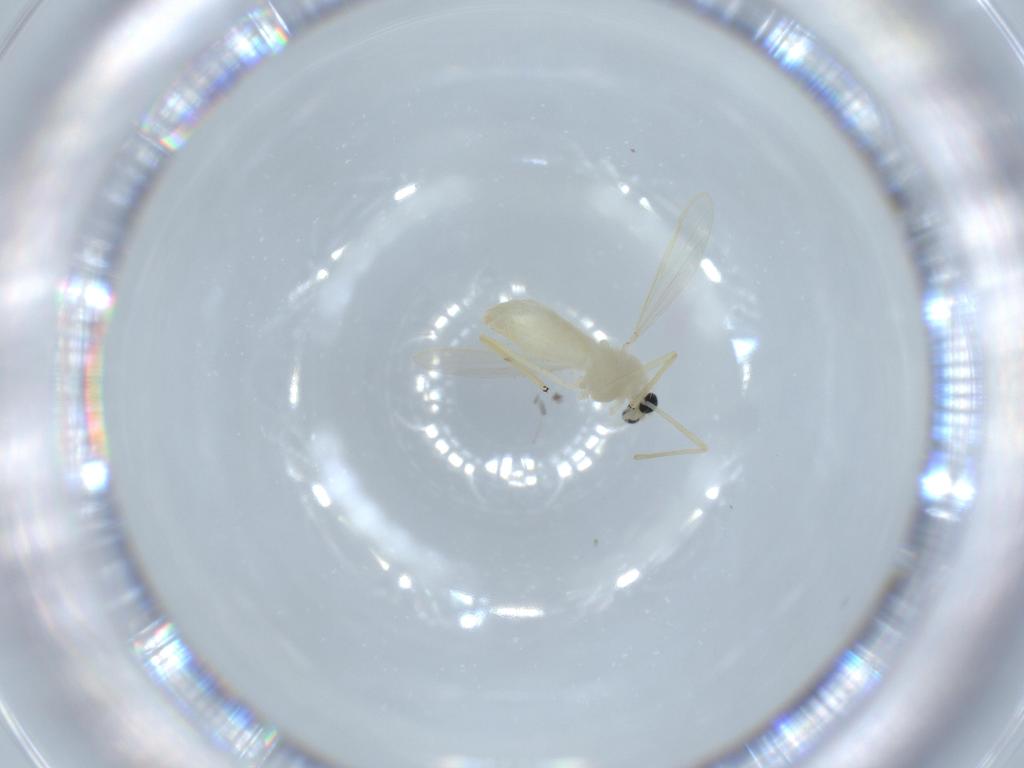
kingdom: Animalia
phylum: Arthropoda
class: Insecta
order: Diptera
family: Chironomidae
